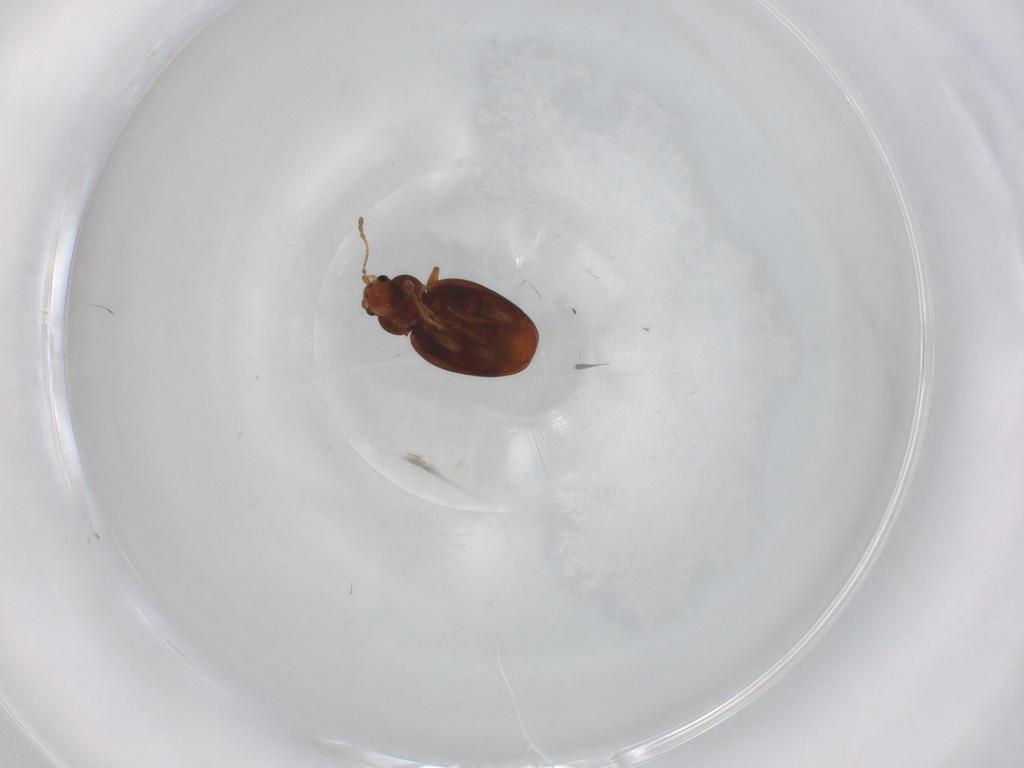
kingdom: Animalia
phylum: Arthropoda
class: Insecta
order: Coleoptera
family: Latridiidae
